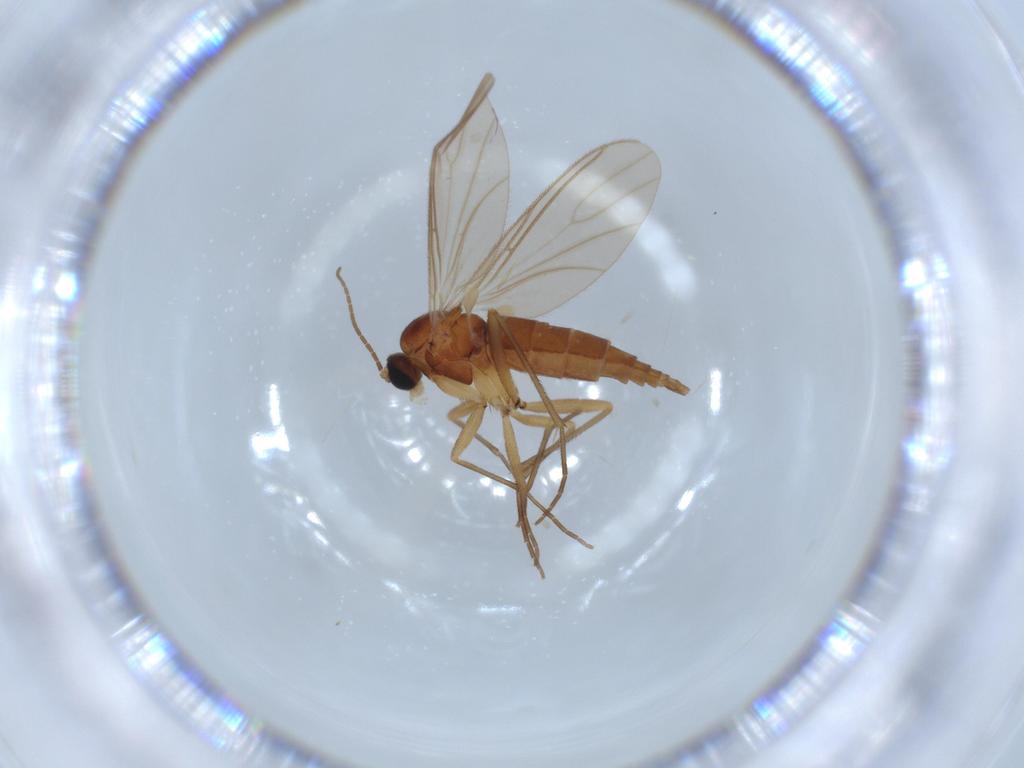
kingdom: Animalia
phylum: Arthropoda
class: Insecta
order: Diptera
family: Sciaridae
